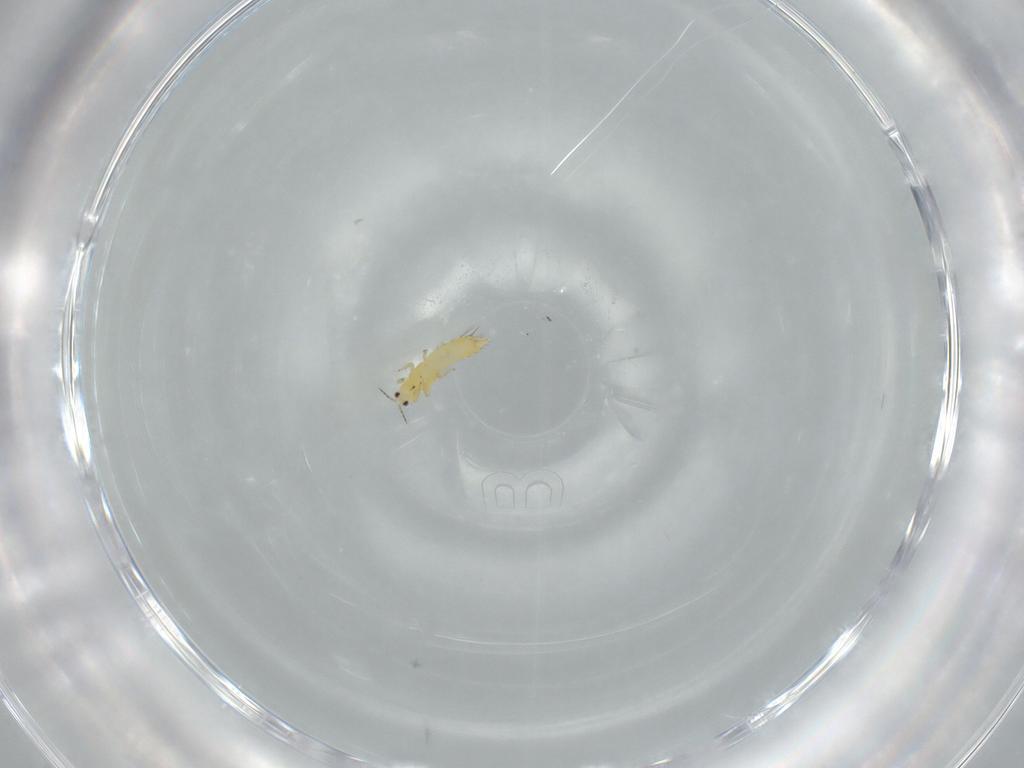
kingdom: Animalia
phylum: Arthropoda
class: Insecta
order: Thysanoptera
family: Thripidae
